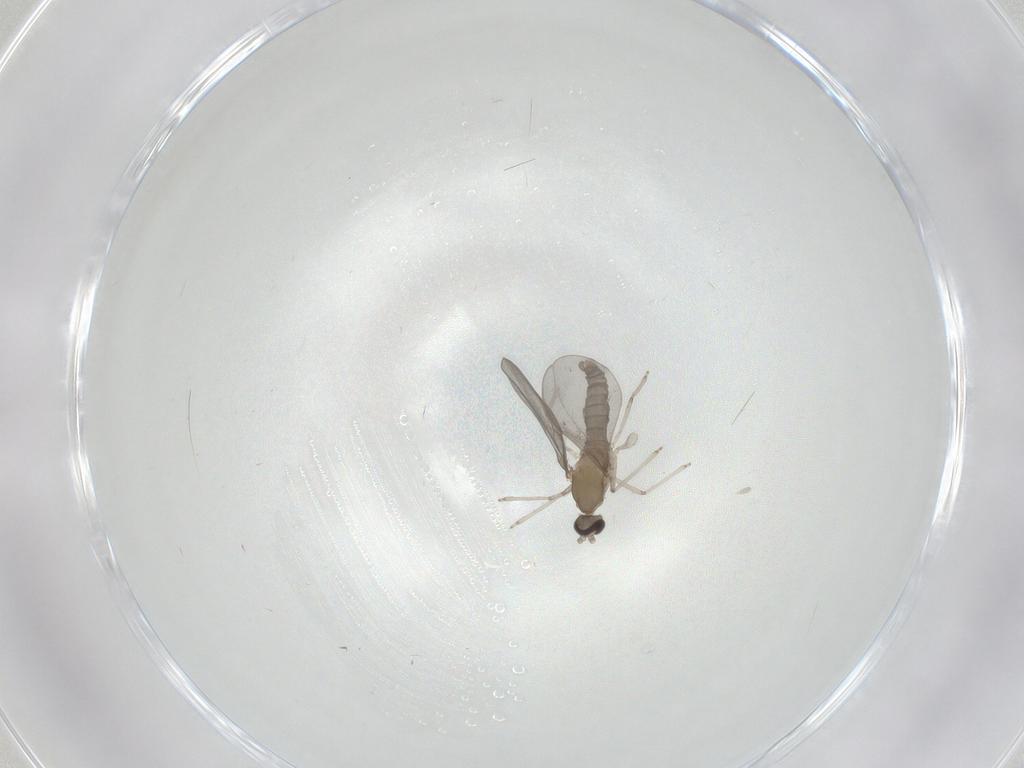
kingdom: Animalia
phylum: Arthropoda
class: Insecta
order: Diptera
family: Cecidomyiidae
